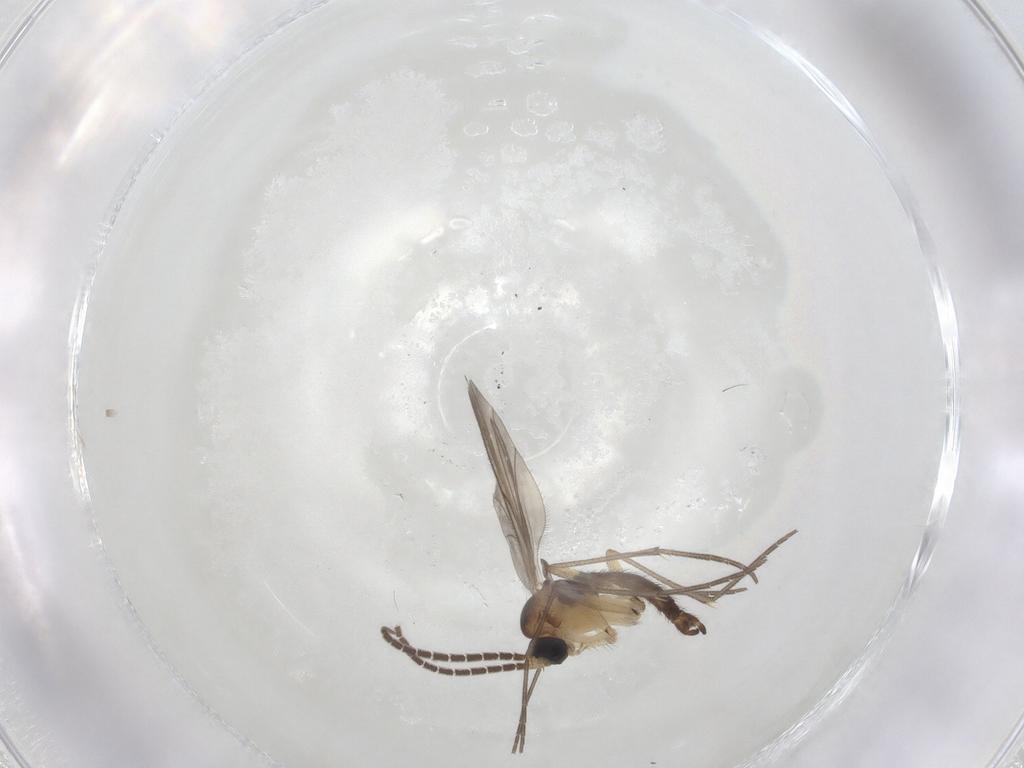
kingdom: Animalia
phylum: Arthropoda
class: Insecta
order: Diptera
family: Sciaridae
